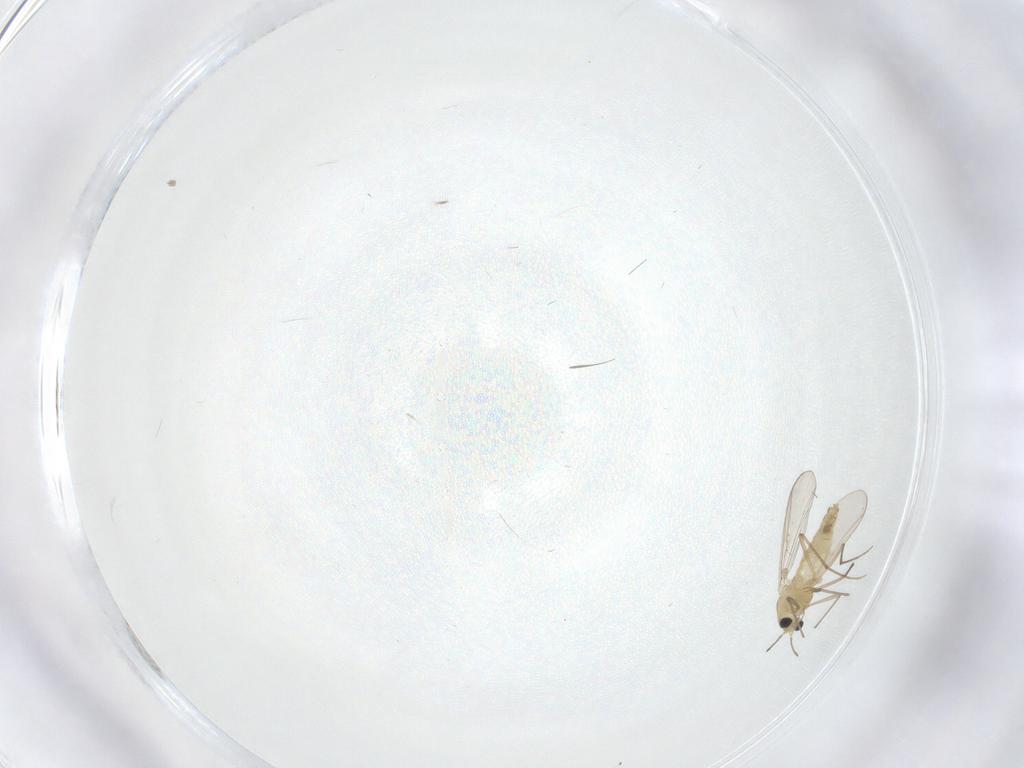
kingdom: Animalia
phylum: Arthropoda
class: Insecta
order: Diptera
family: Chironomidae
